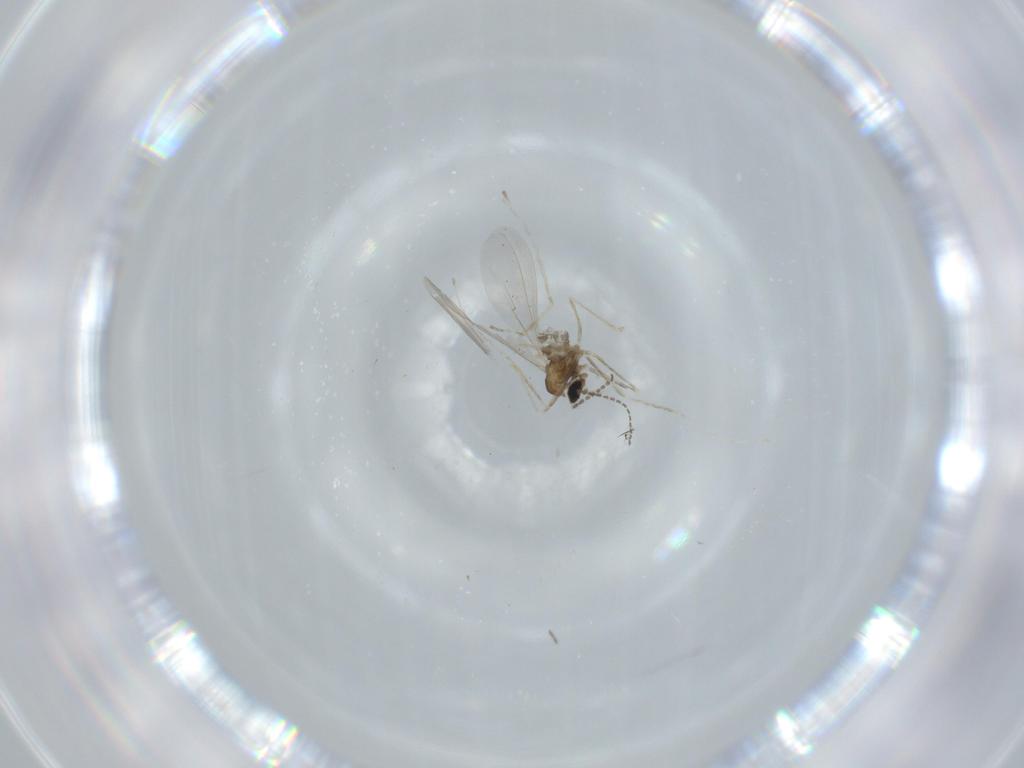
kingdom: Animalia
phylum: Arthropoda
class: Insecta
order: Diptera
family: Cecidomyiidae
